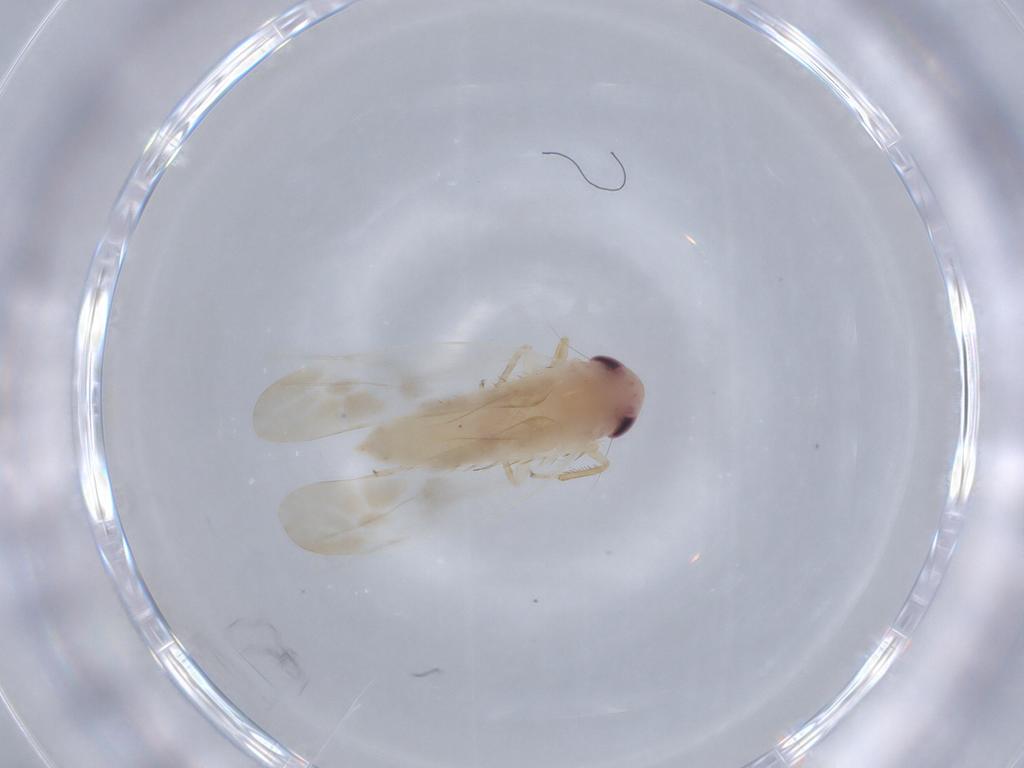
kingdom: Animalia
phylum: Arthropoda
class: Insecta
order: Hemiptera
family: Cicadellidae
